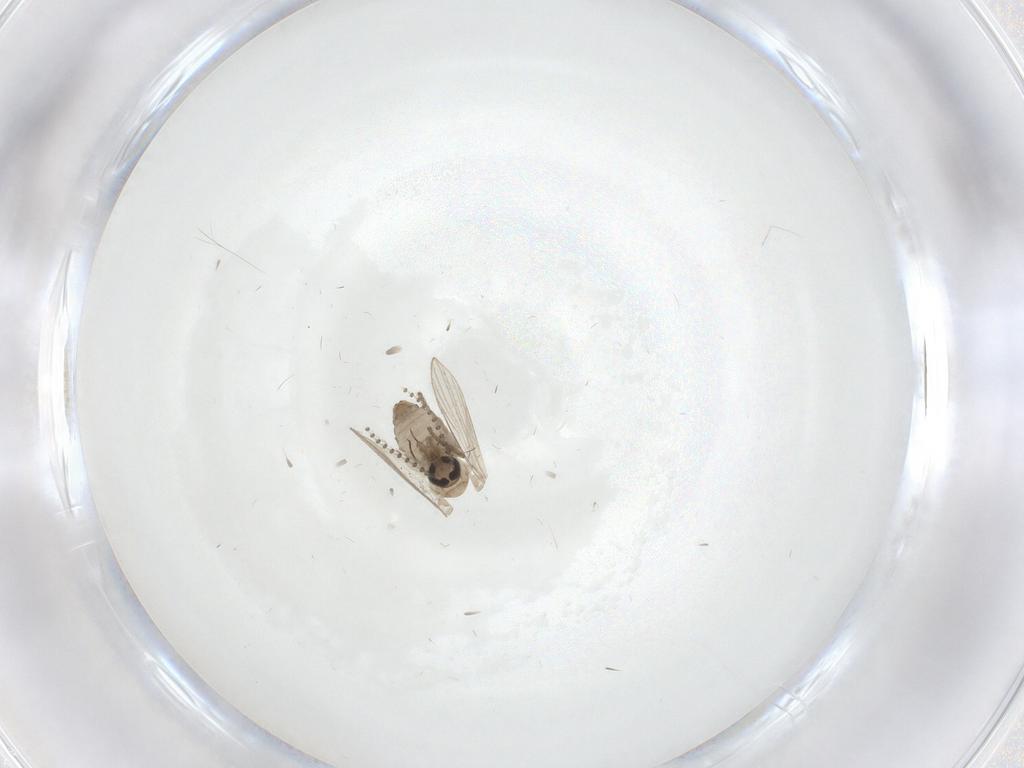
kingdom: Animalia
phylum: Arthropoda
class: Insecta
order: Diptera
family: Psychodidae
